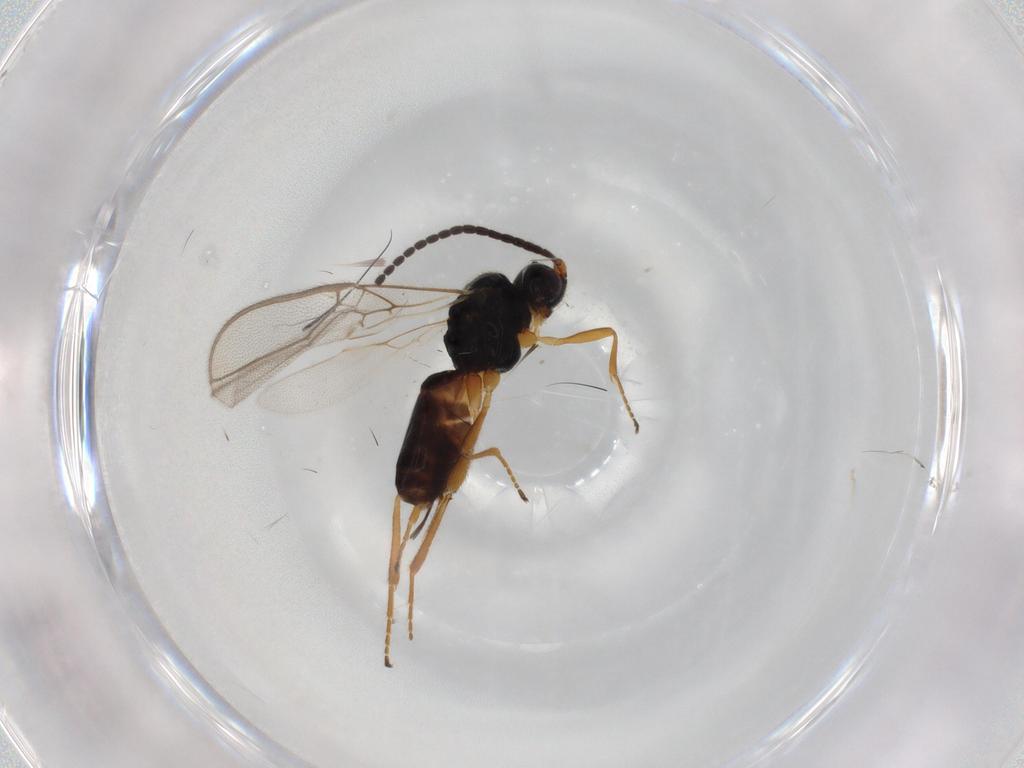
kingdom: Animalia
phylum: Arthropoda
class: Insecta
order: Hymenoptera
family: Braconidae
